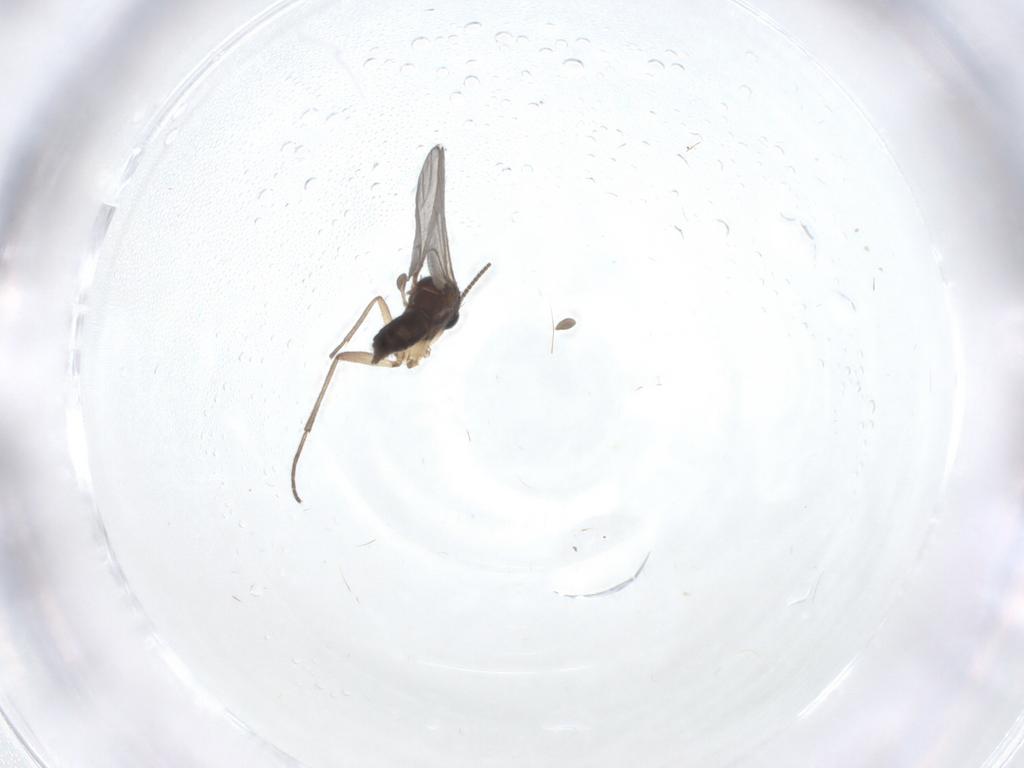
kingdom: Animalia
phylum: Arthropoda
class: Insecta
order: Diptera
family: Sciaridae
